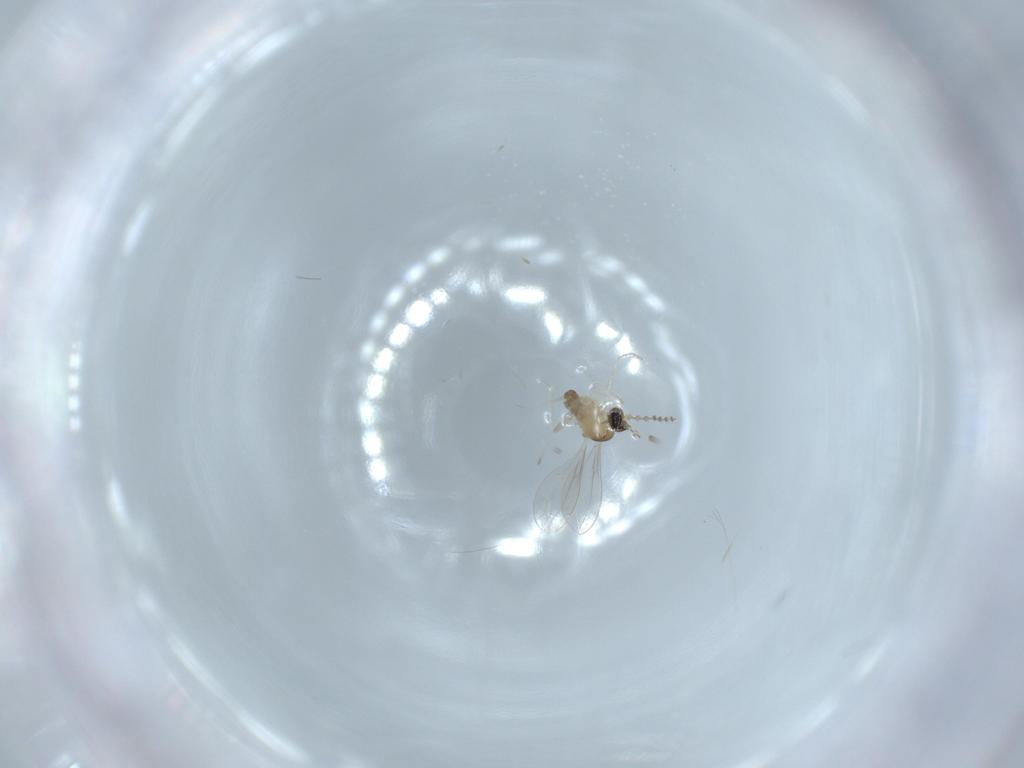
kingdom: Animalia
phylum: Arthropoda
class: Insecta
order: Diptera
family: Cecidomyiidae
